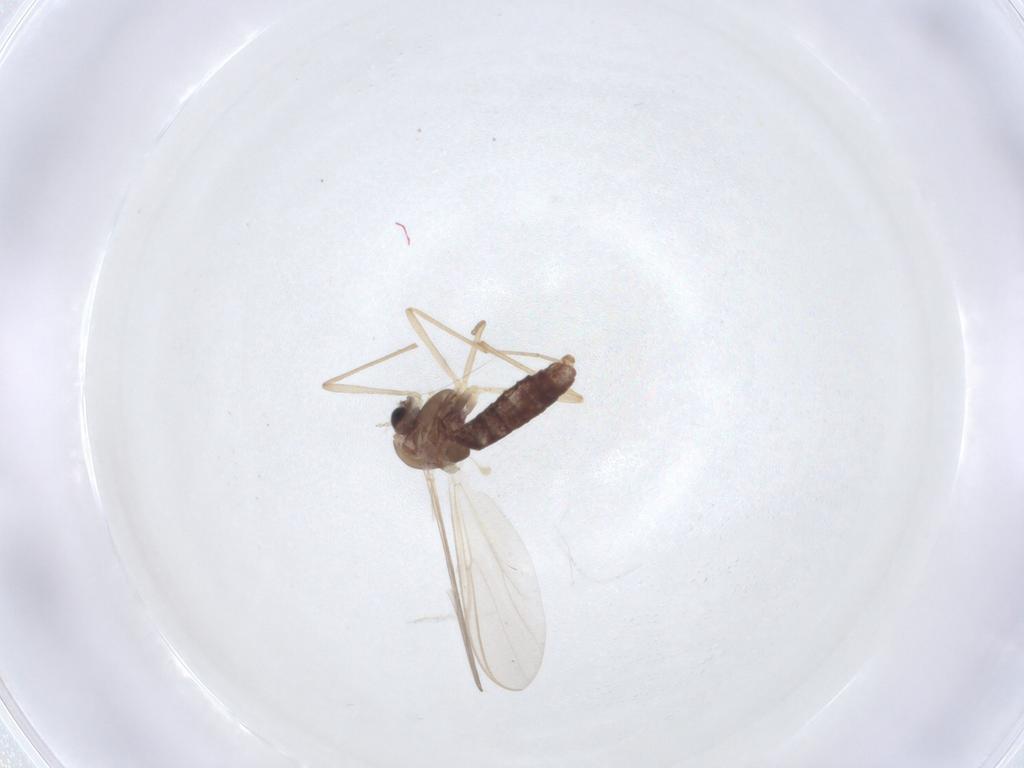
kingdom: Animalia
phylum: Arthropoda
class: Insecta
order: Diptera
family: Chironomidae
